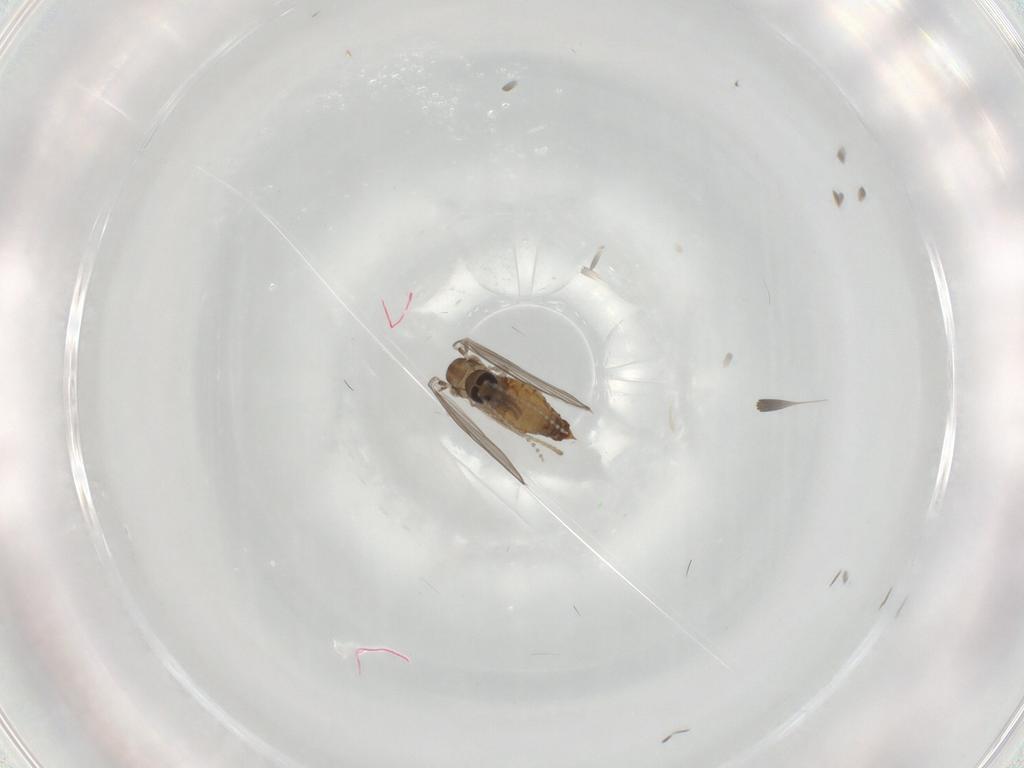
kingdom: Animalia
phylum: Arthropoda
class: Insecta
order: Diptera
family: Psychodidae
